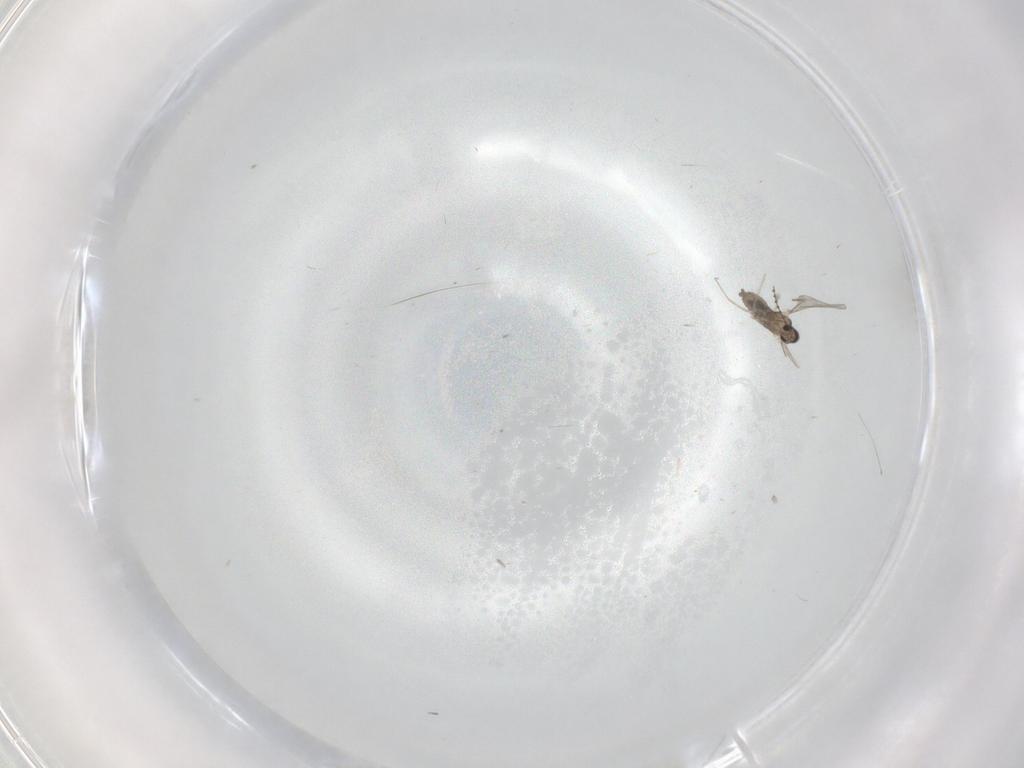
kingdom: Animalia
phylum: Arthropoda
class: Insecta
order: Diptera
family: Cecidomyiidae
